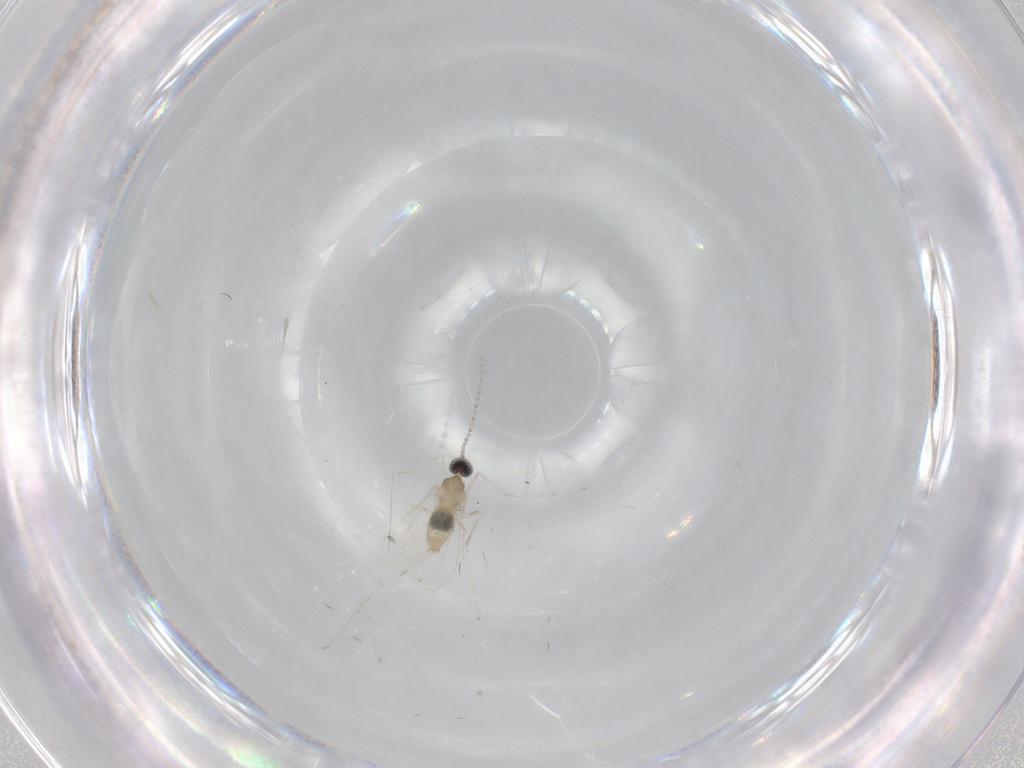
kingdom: Animalia
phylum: Arthropoda
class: Insecta
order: Diptera
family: Cecidomyiidae
